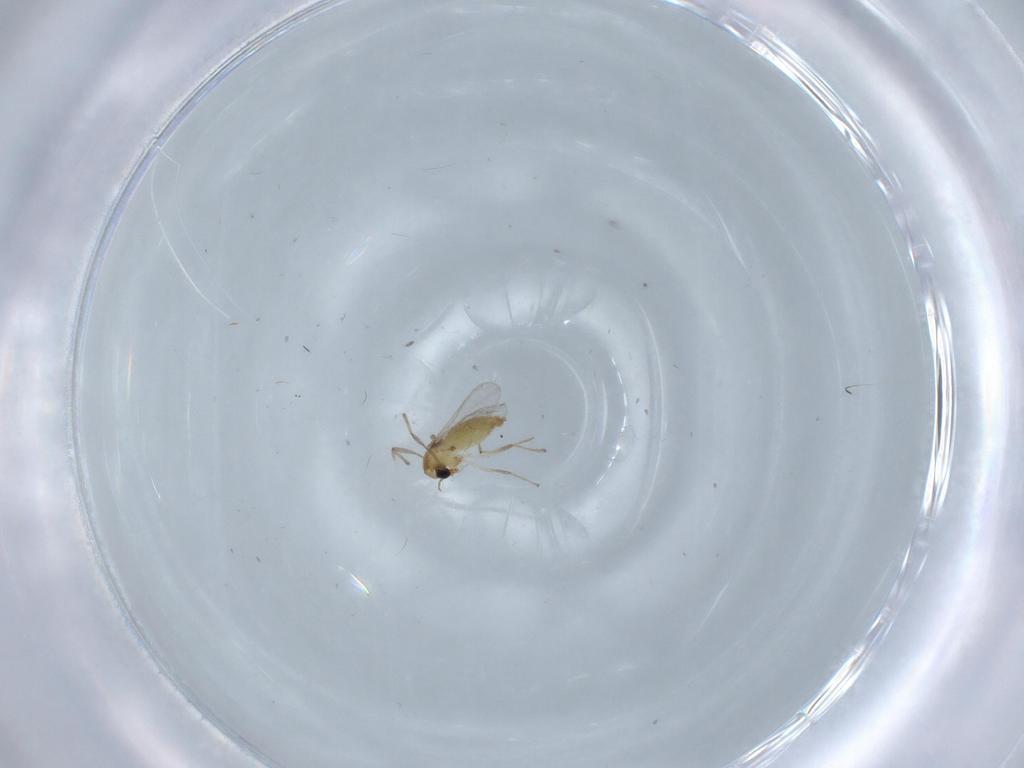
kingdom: Animalia
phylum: Arthropoda
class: Insecta
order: Diptera
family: Chironomidae
